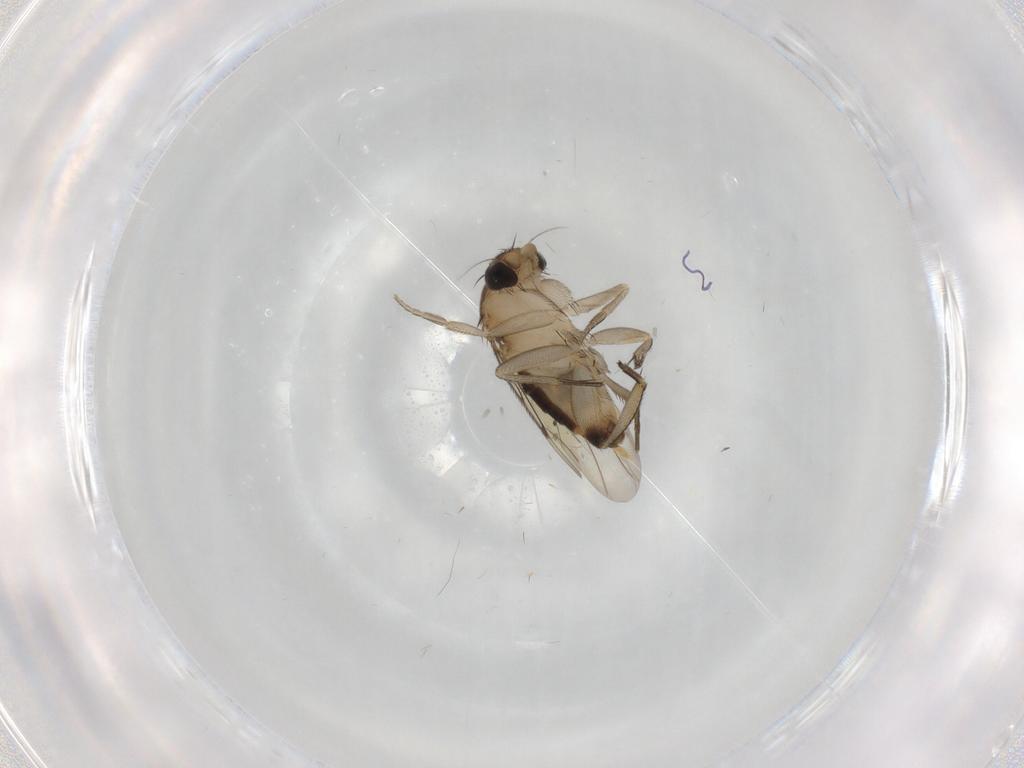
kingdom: Animalia
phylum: Arthropoda
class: Insecta
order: Diptera
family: Phoridae
